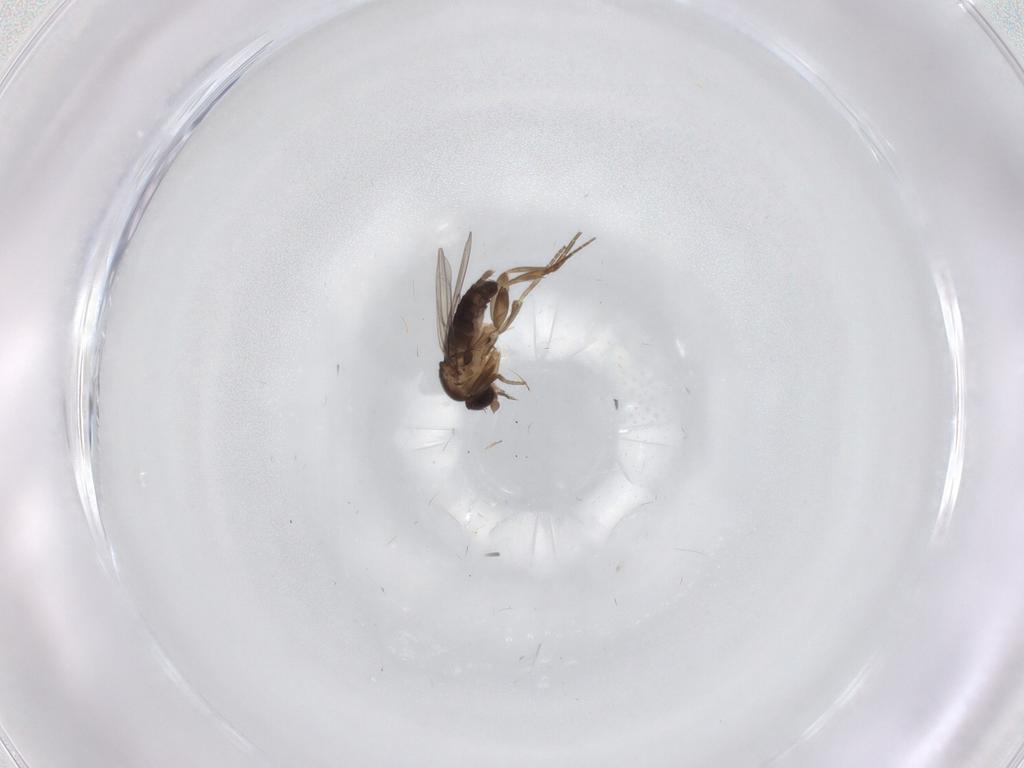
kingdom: Animalia
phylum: Arthropoda
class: Insecta
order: Diptera
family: Phoridae
